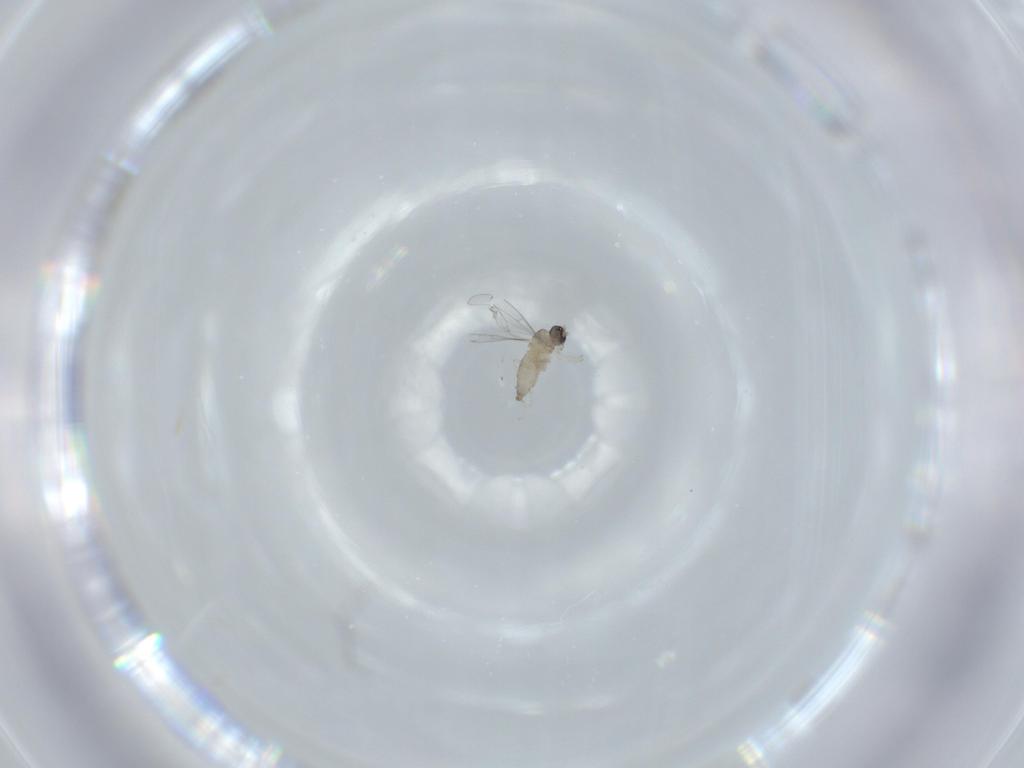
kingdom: Animalia
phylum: Arthropoda
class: Insecta
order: Diptera
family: Cecidomyiidae
